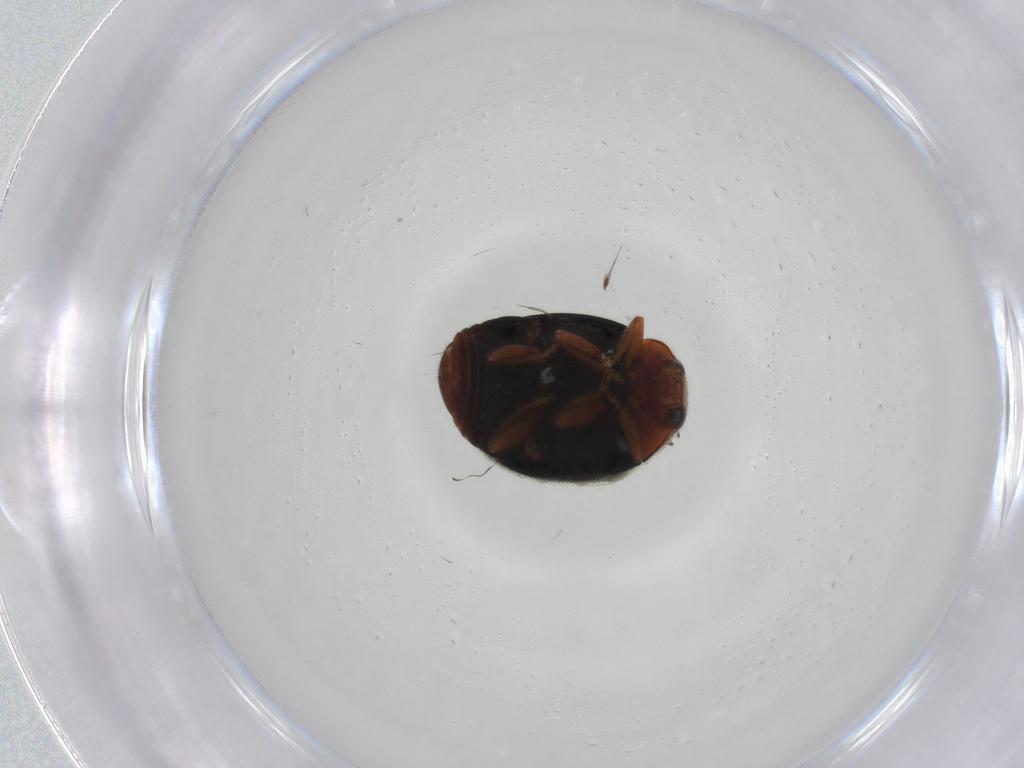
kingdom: Animalia
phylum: Arthropoda
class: Insecta
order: Coleoptera
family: Coccinellidae
